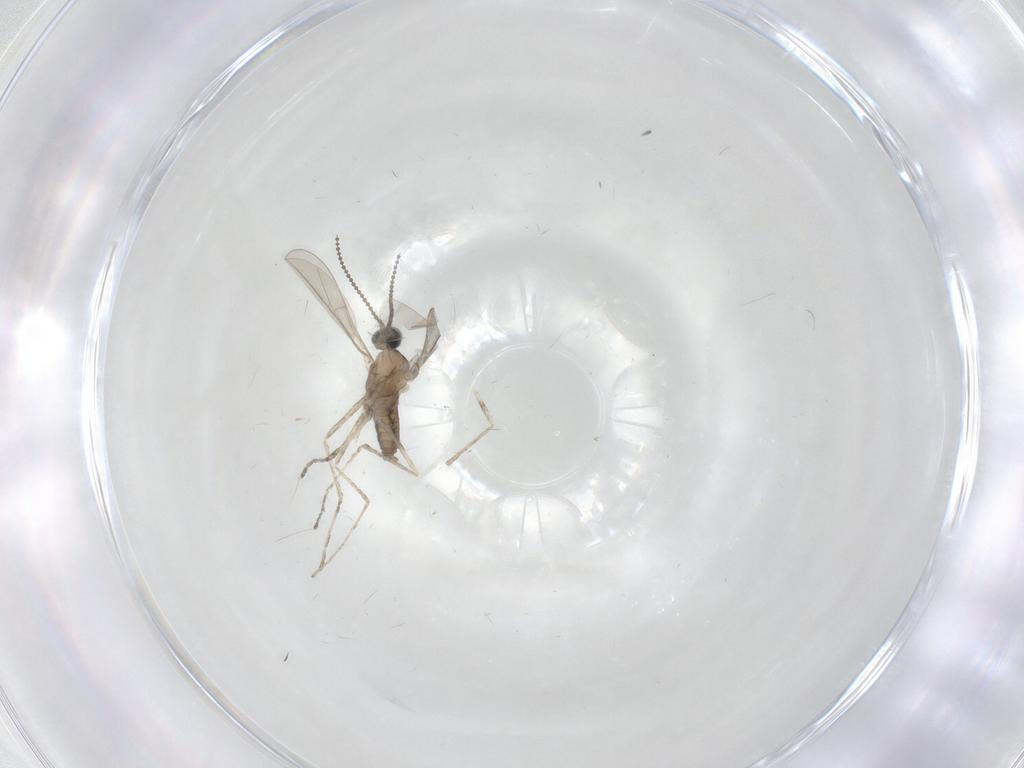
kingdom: Animalia
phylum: Arthropoda
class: Insecta
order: Diptera
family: Cecidomyiidae
